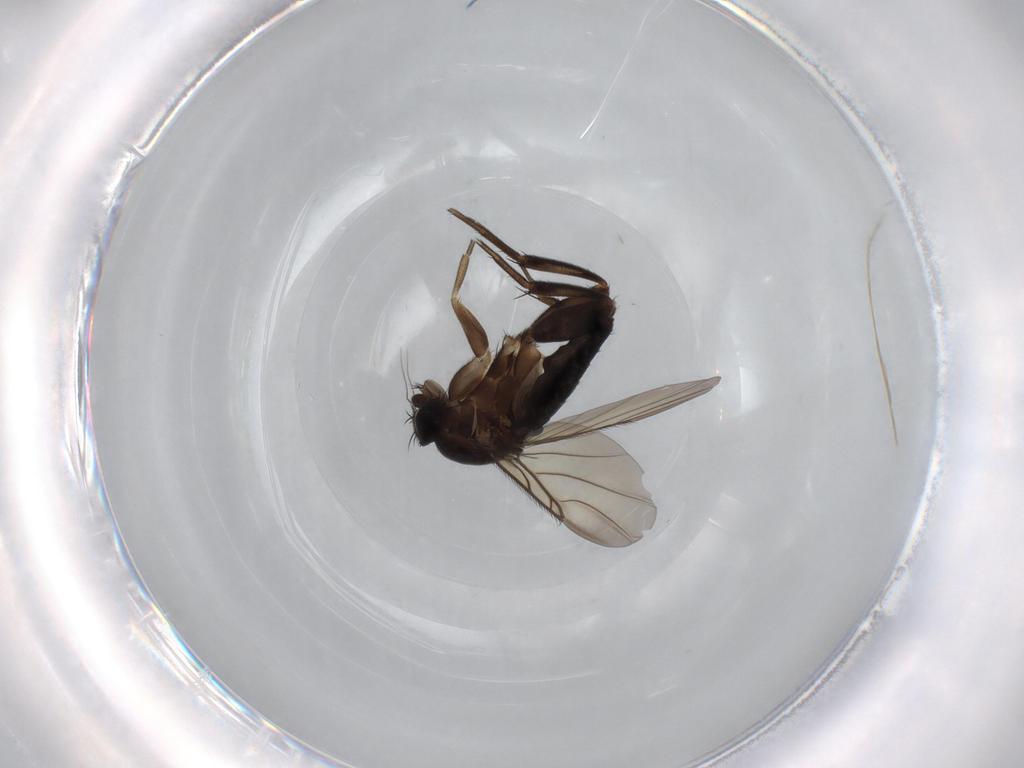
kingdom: Animalia
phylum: Arthropoda
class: Insecta
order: Diptera
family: Phoridae
